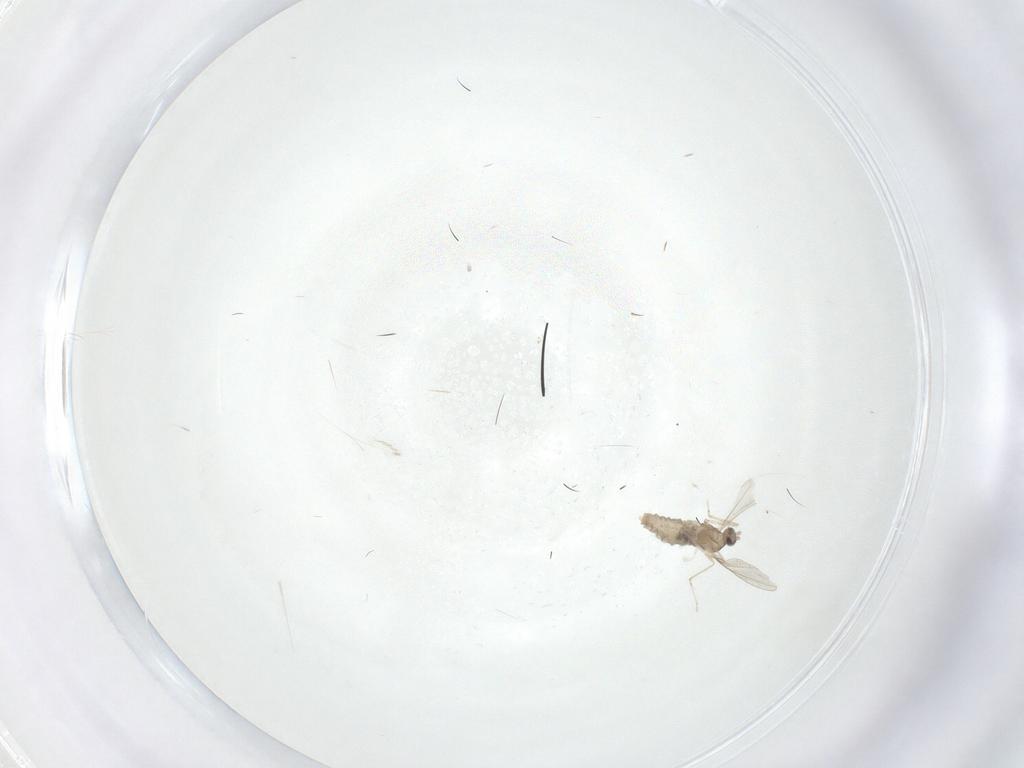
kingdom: Animalia
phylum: Arthropoda
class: Insecta
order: Diptera
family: Cecidomyiidae
